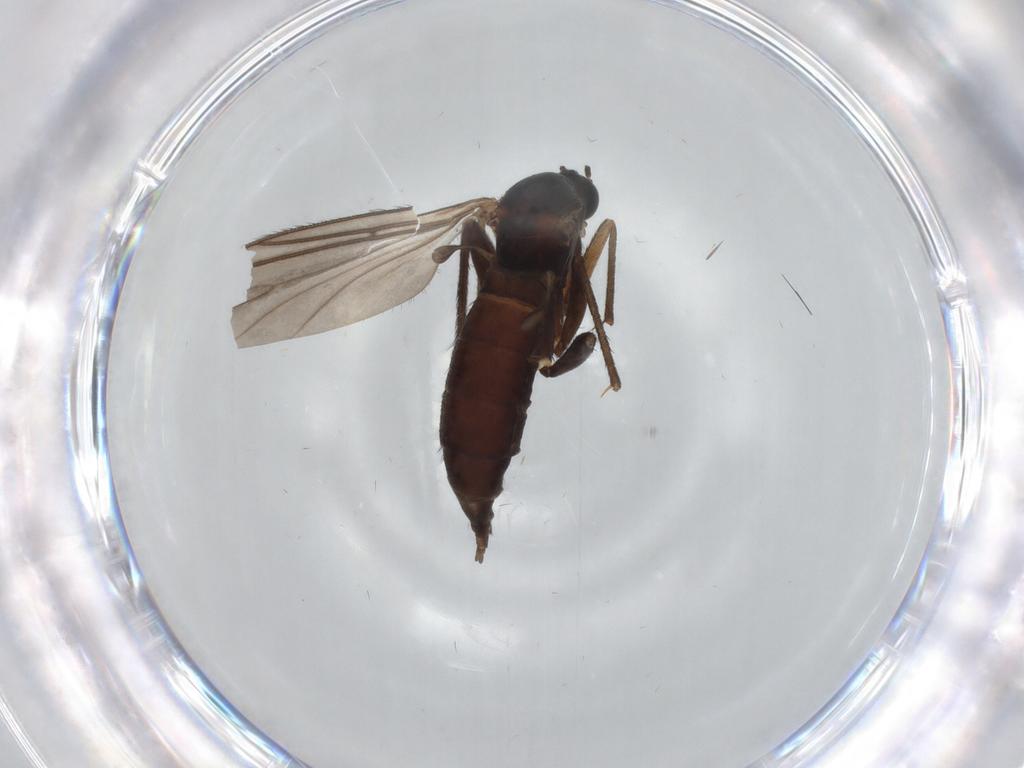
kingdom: Animalia
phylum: Arthropoda
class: Insecta
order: Diptera
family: Sciaridae
